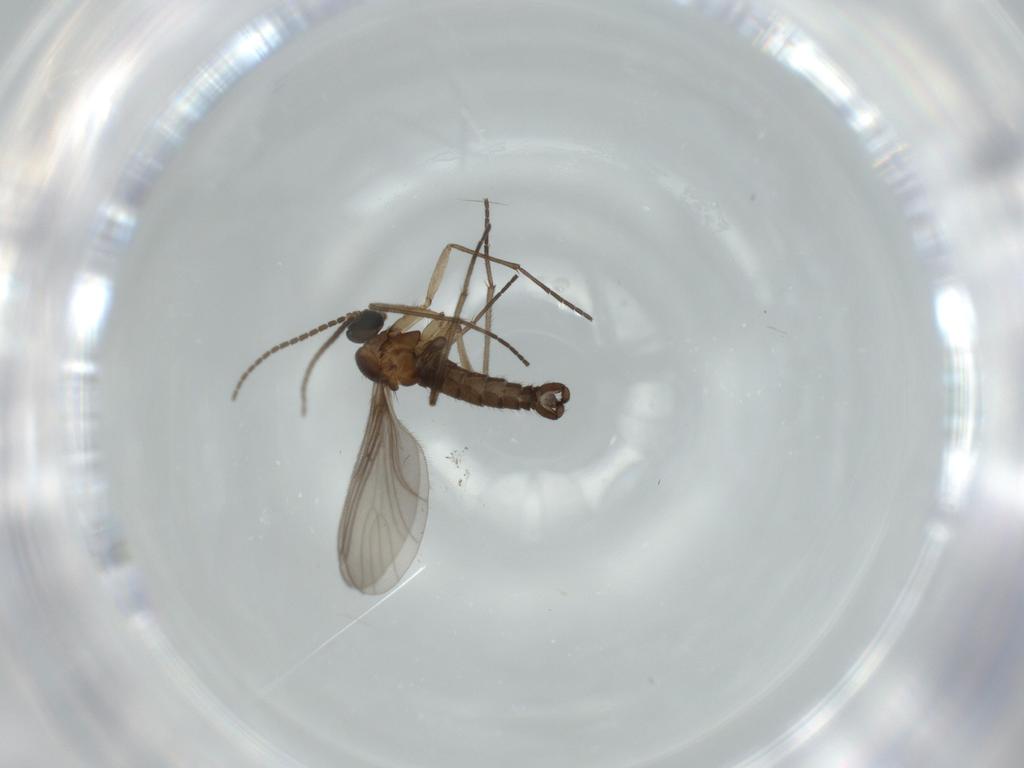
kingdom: Animalia
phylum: Arthropoda
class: Insecta
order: Diptera
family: Sciaridae
